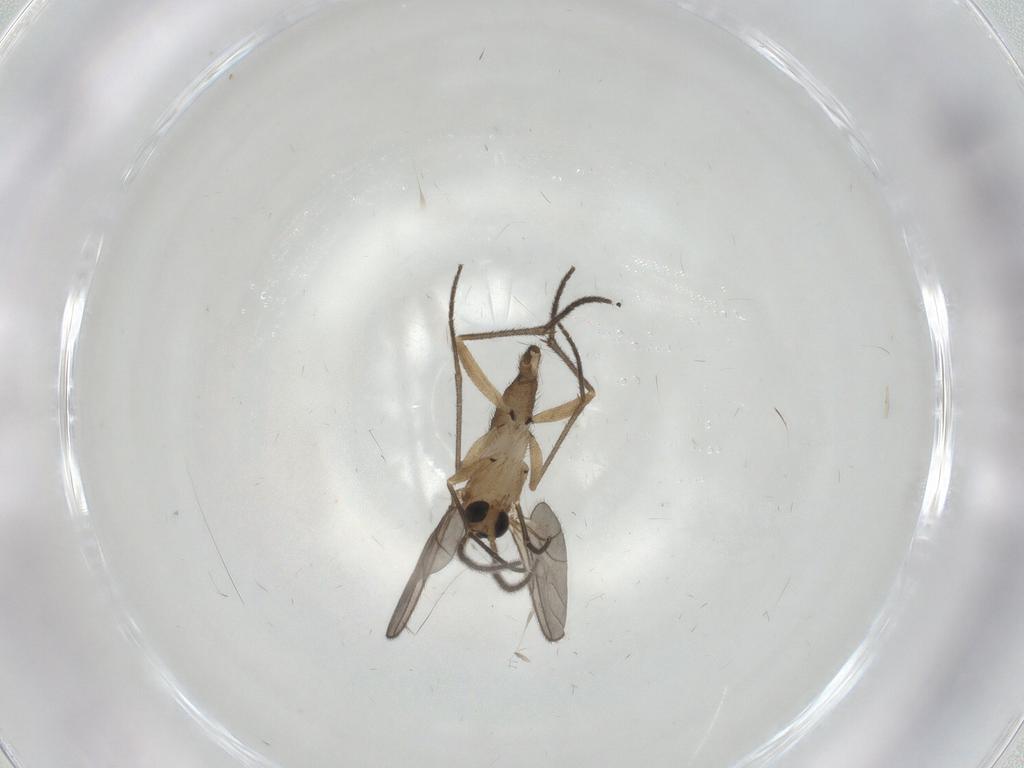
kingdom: Animalia
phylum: Arthropoda
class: Insecta
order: Diptera
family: Sciaridae
